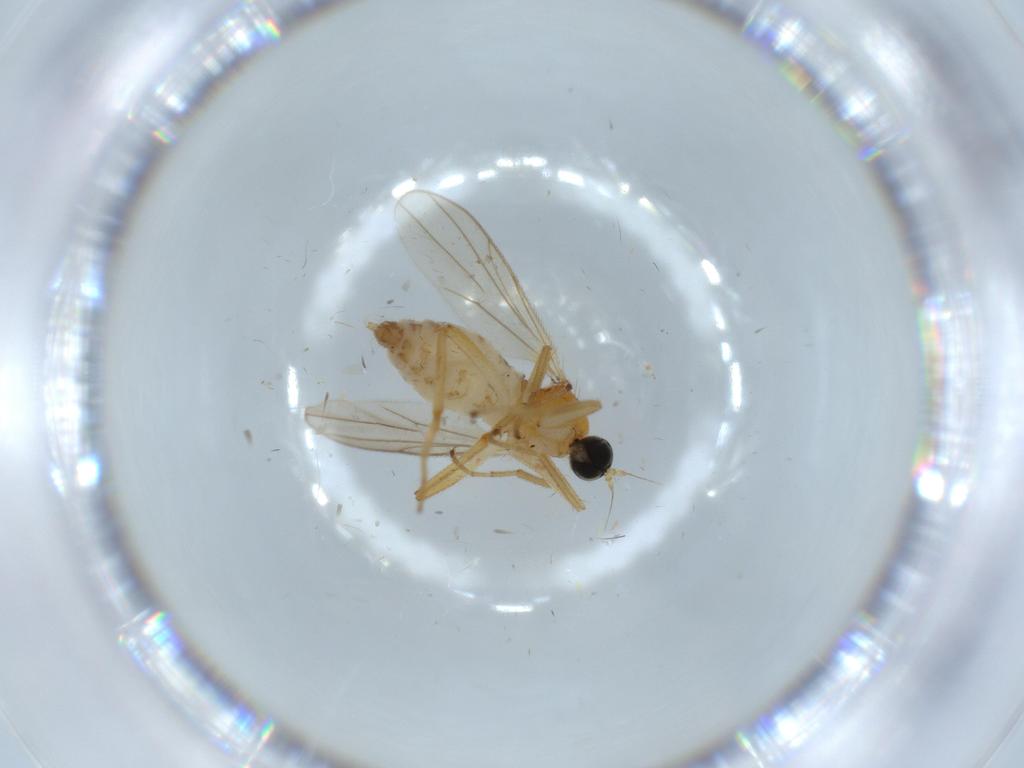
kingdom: Animalia
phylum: Arthropoda
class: Insecta
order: Diptera
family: Hybotidae
